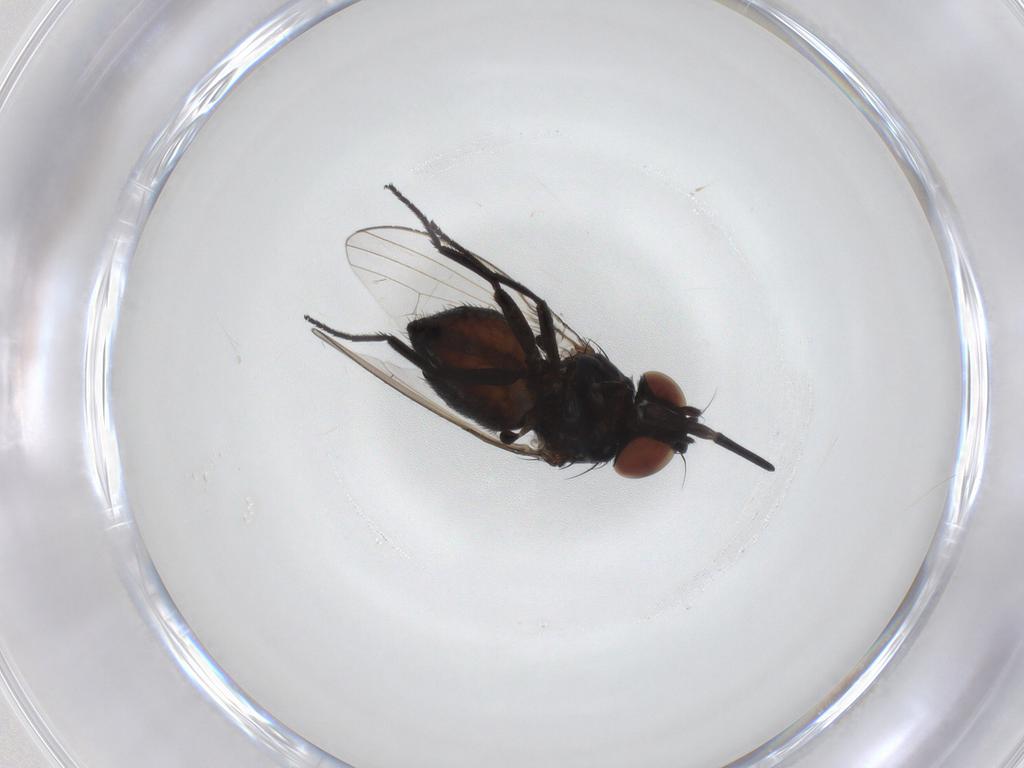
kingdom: Animalia
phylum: Arthropoda
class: Insecta
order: Diptera
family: Milichiidae
